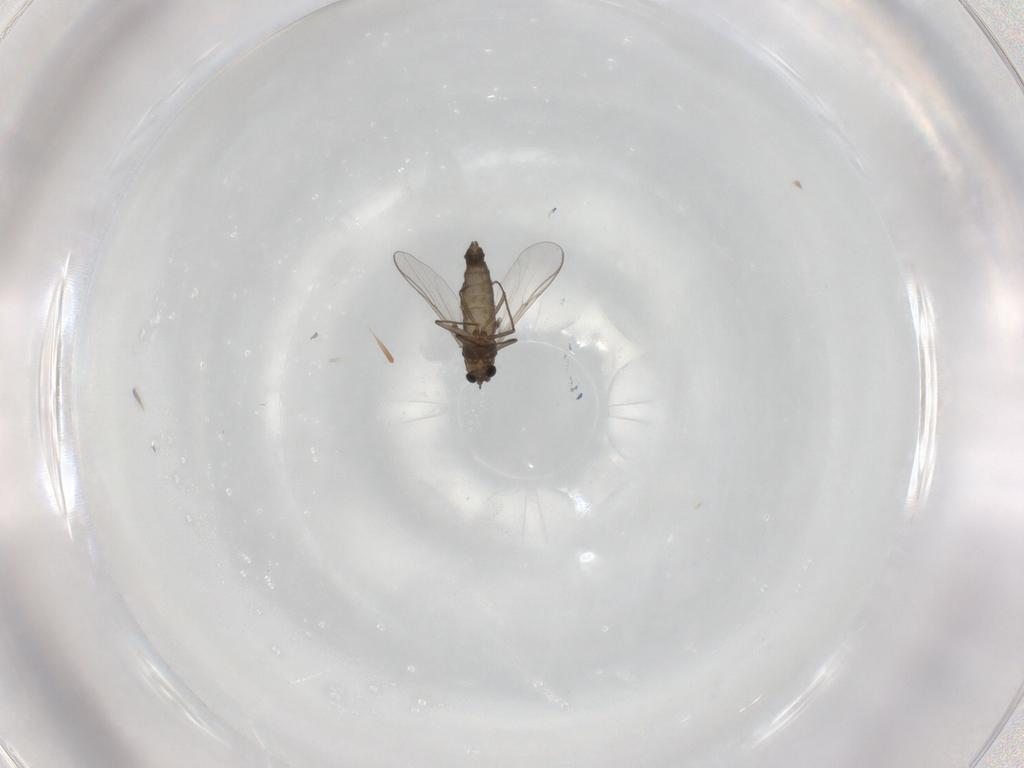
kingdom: Animalia
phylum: Arthropoda
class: Insecta
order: Diptera
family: Chironomidae
